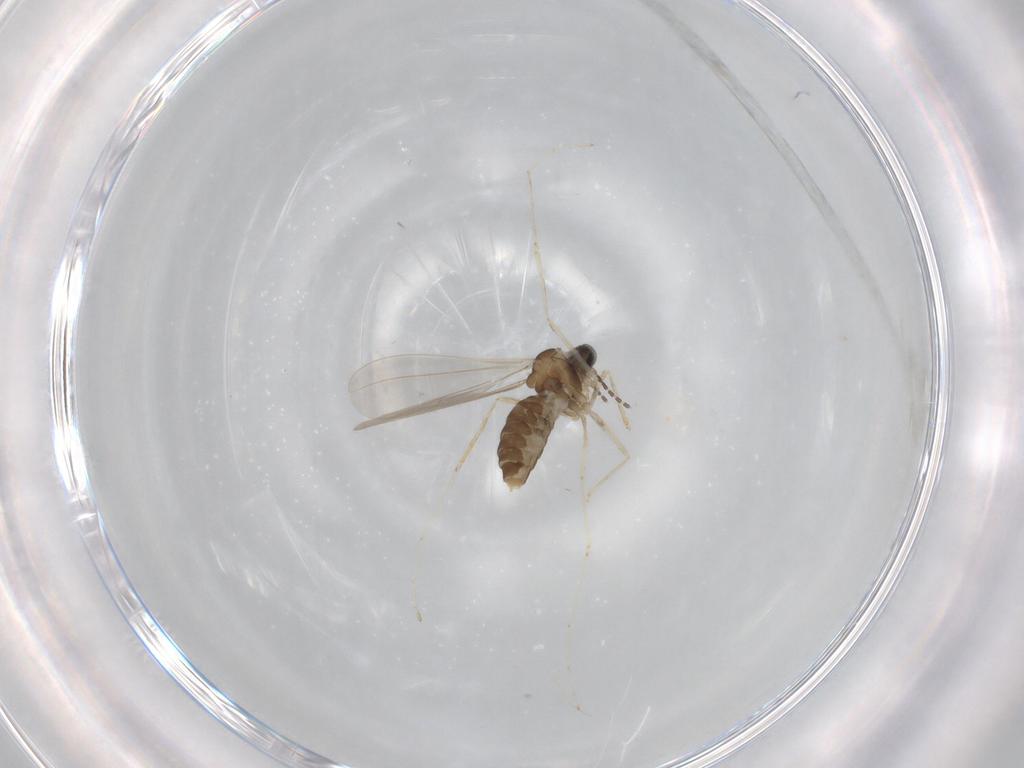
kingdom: Animalia
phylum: Arthropoda
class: Insecta
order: Diptera
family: Cecidomyiidae
